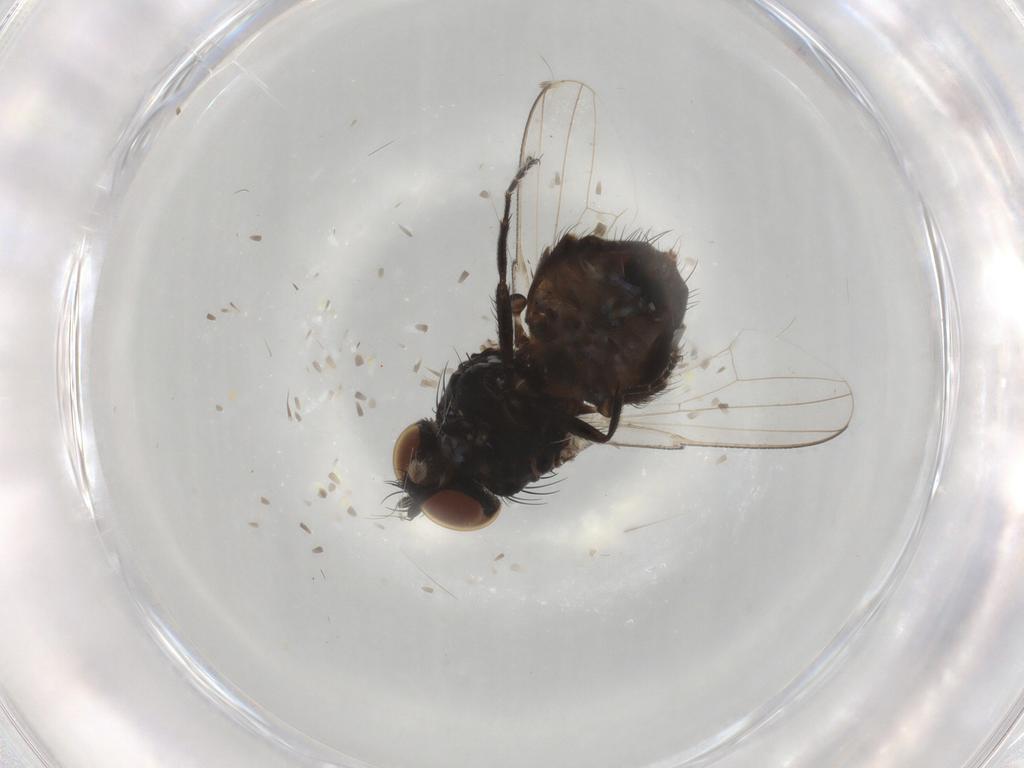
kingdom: Animalia
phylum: Arthropoda
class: Insecta
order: Diptera
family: Milichiidae
